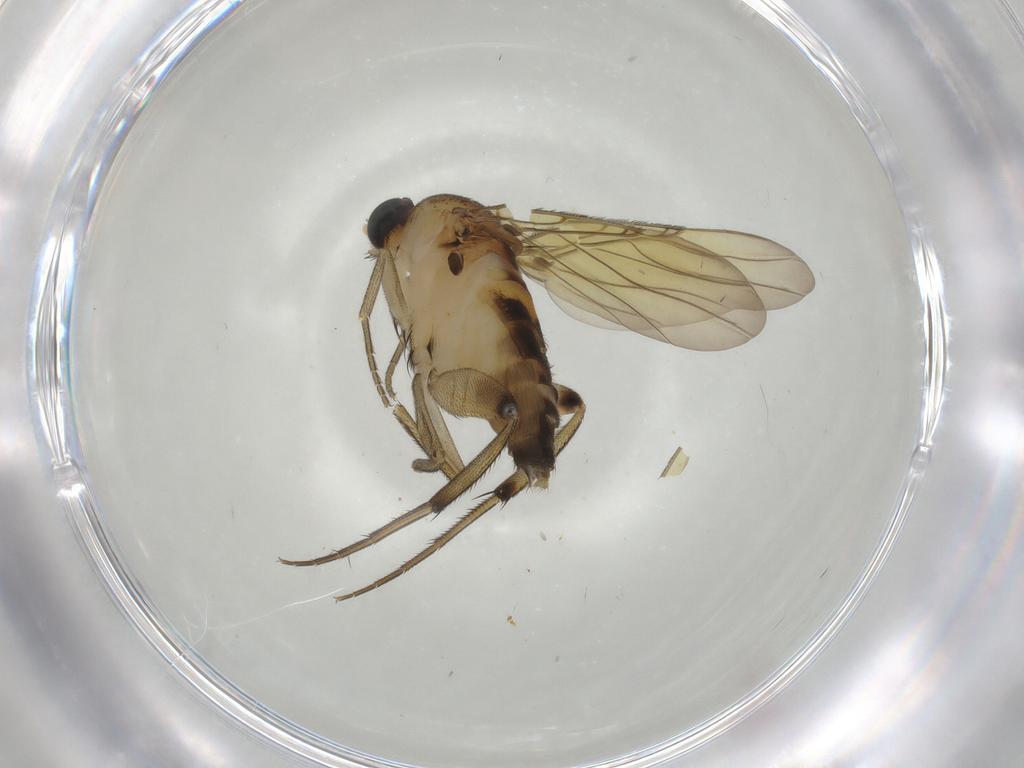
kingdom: Animalia
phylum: Arthropoda
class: Insecta
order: Diptera
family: Phoridae
